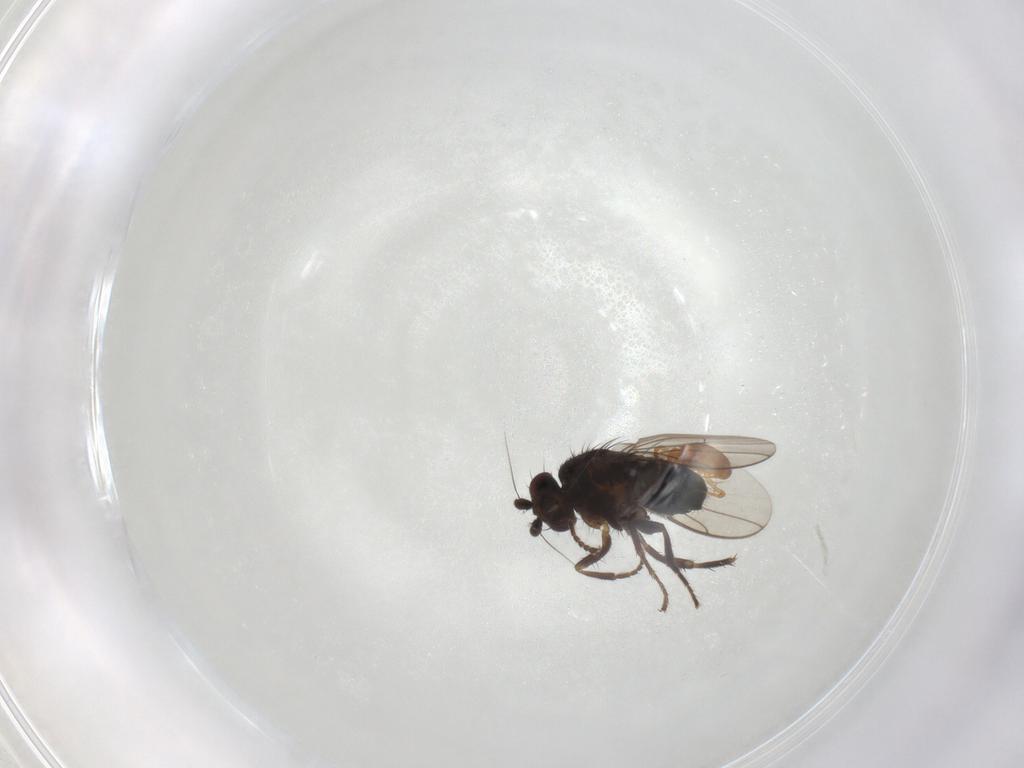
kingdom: Animalia
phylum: Arthropoda
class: Insecta
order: Diptera
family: Sphaeroceridae
